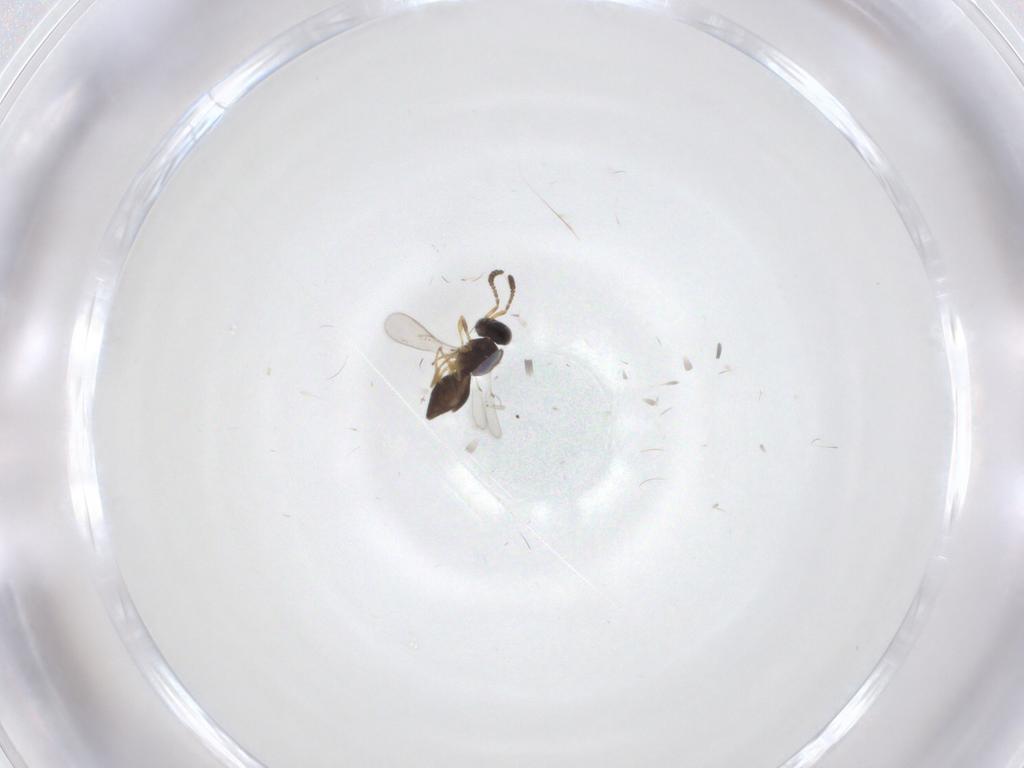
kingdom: Animalia
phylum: Arthropoda
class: Insecta
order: Hymenoptera
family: Scelionidae
